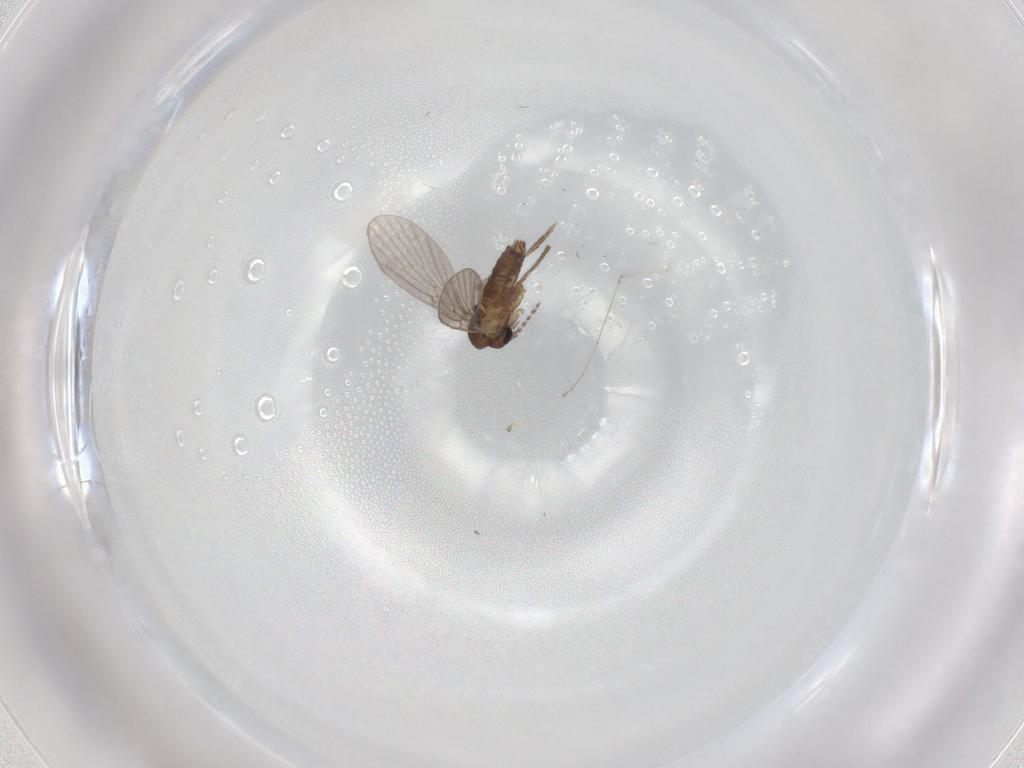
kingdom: Animalia
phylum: Arthropoda
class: Insecta
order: Diptera
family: Cecidomyiidae
